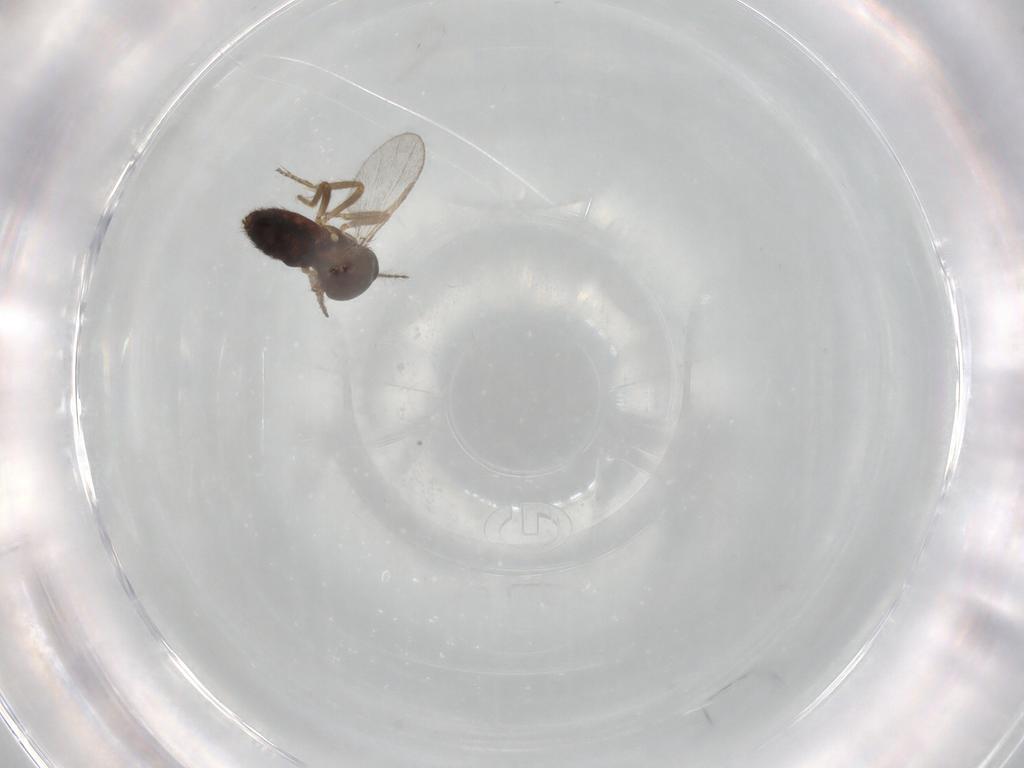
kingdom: Animalia
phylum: Arthropoda
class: Insecta
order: Diptera
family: Ceratopogonidae
